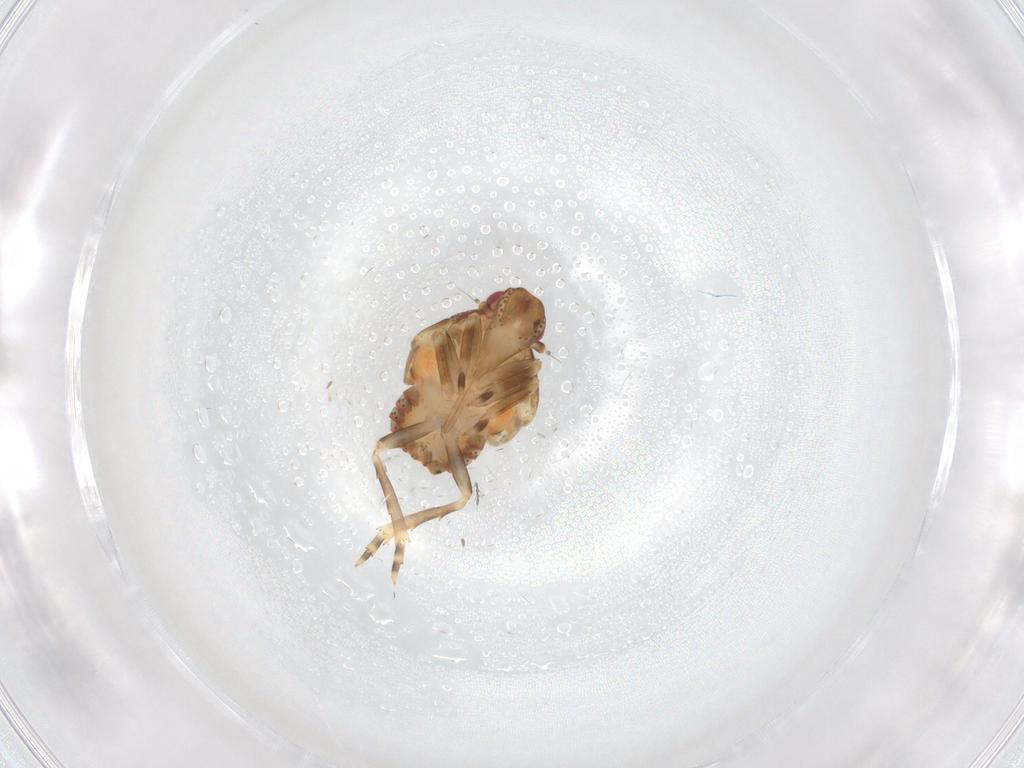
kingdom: Animalia
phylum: Arthropoda
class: Insecta
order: Hemiptera
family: Flatidae
